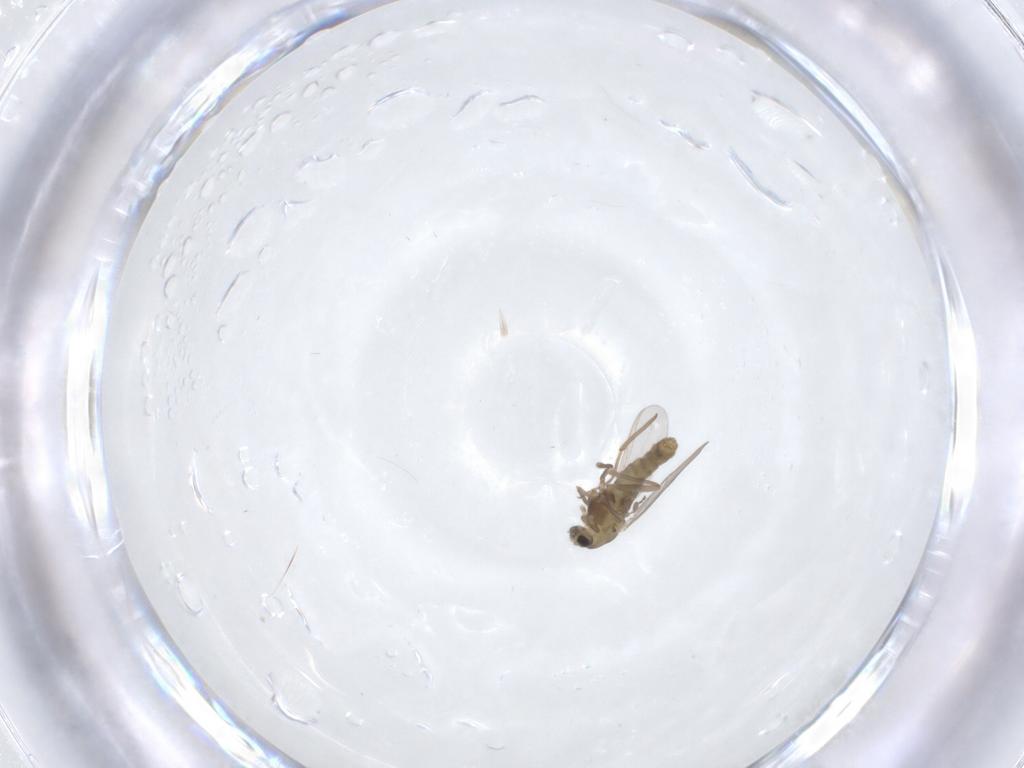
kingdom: Animalia
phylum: Arthropoda
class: Insecta
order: Diptera
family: Chironomidae
